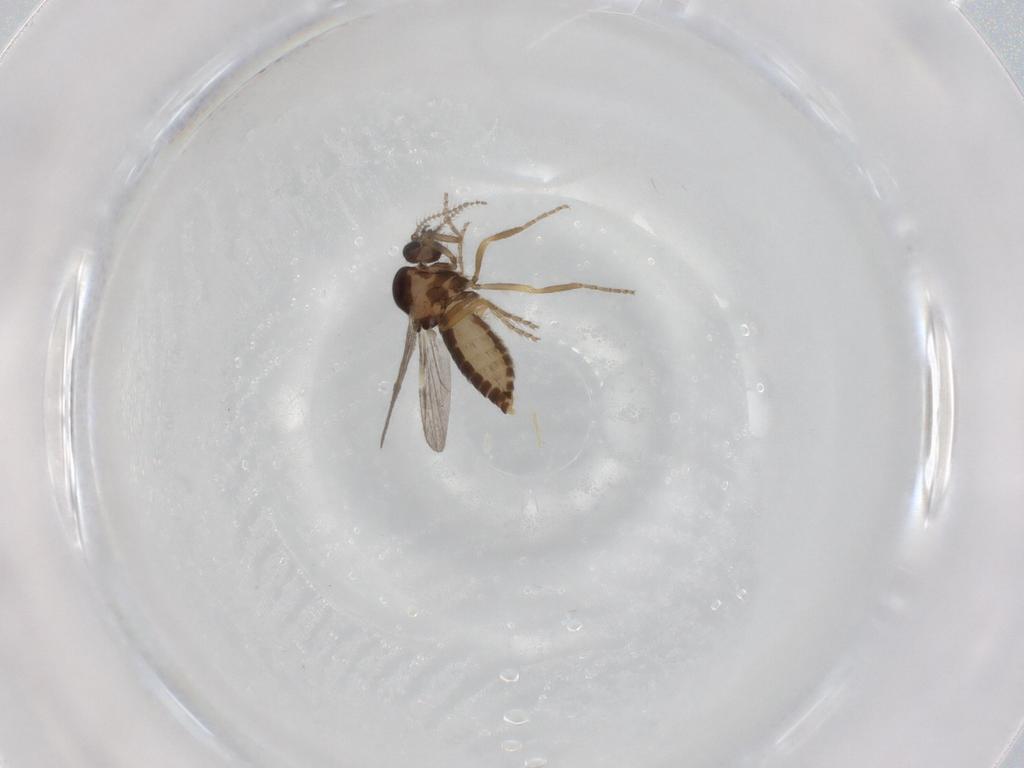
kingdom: Animalia
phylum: Arthropoda
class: Insecta
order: Diptera
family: Ceratopogonidae
